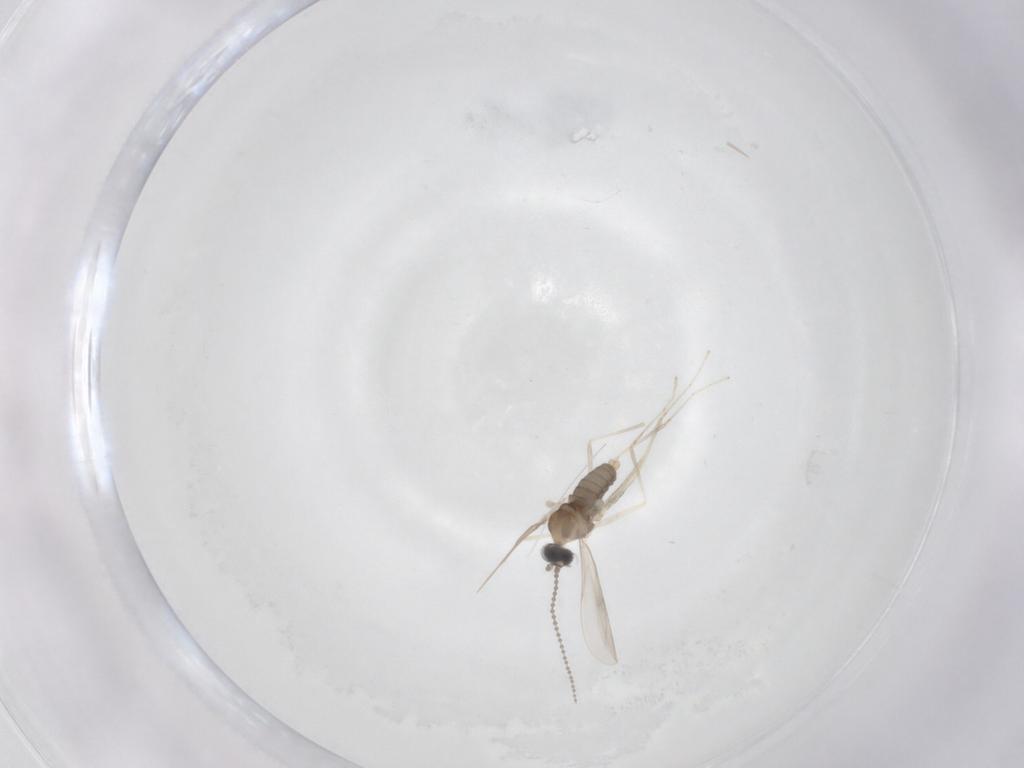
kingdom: Animalia
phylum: Arthropoda
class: Insecta
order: Diptera
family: Cecidomyiidae
